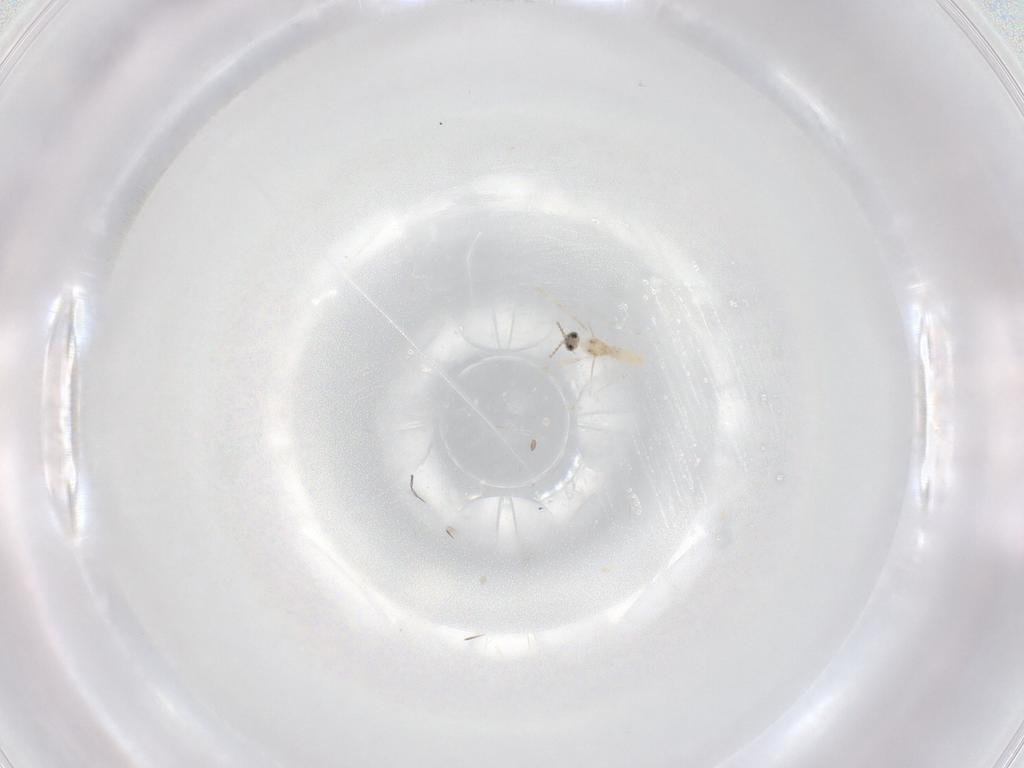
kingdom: Animalia
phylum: Arthropoda
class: Insecta
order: Diptera
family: Cecidomyiidae
